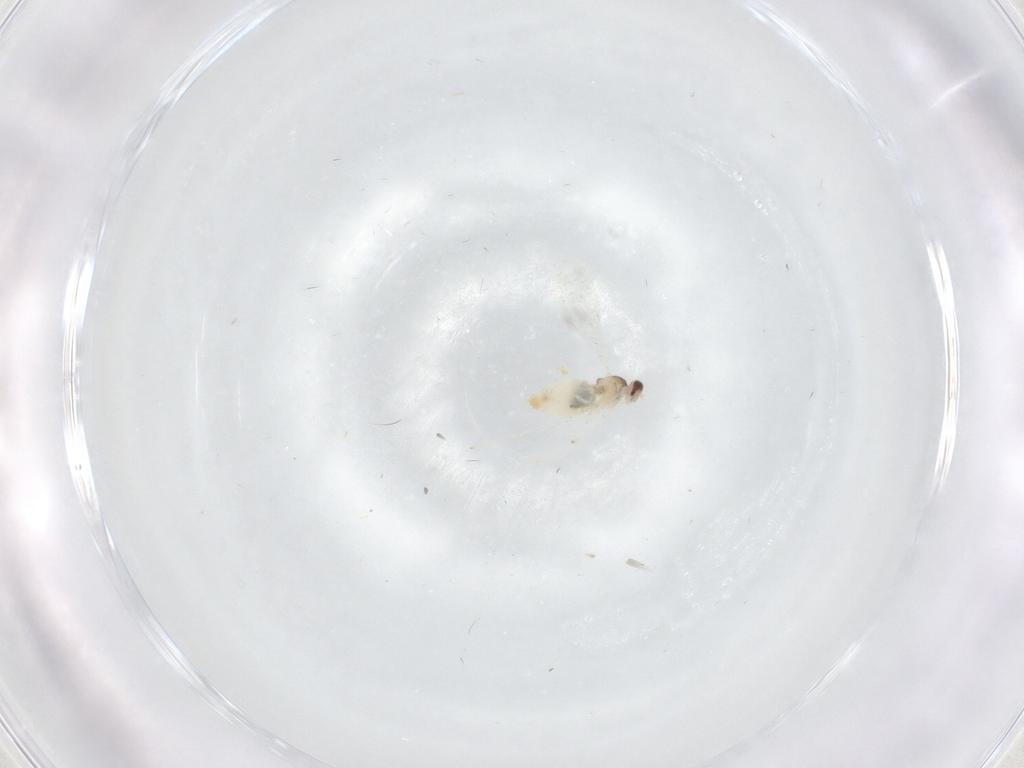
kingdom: Animalia
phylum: Arthropoda
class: Insecta
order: Diptera
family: Cecidomyiidae
